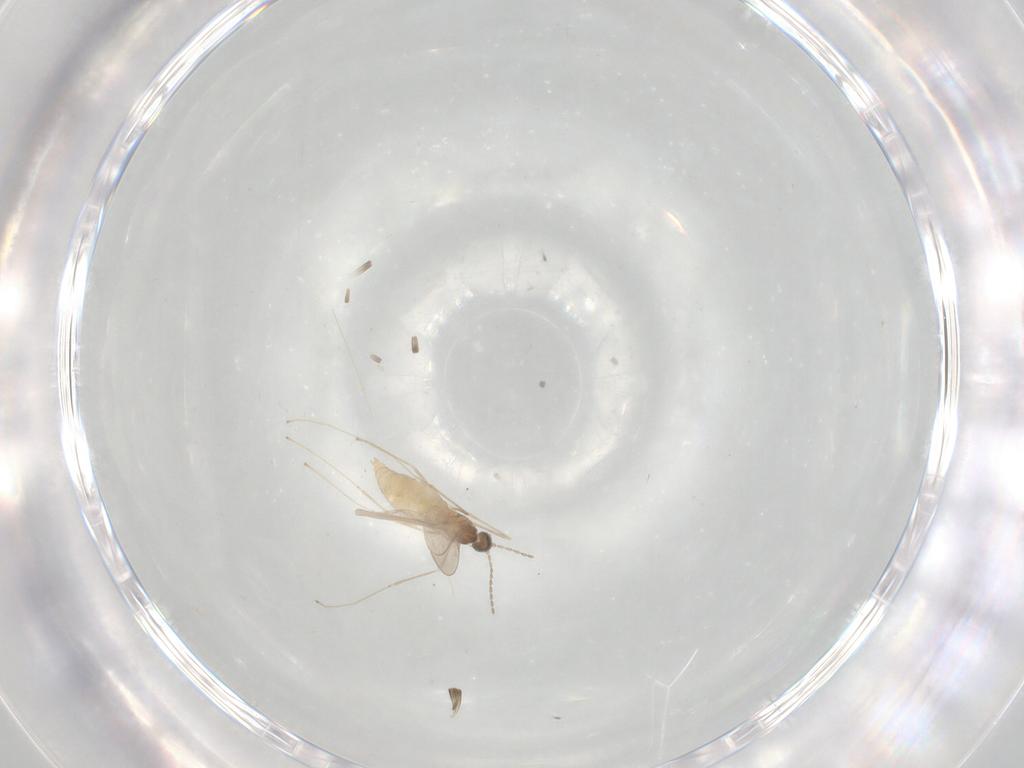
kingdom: Animalia
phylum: Arthropoda
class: Insecta
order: Diptera
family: Cecidomyiidae
